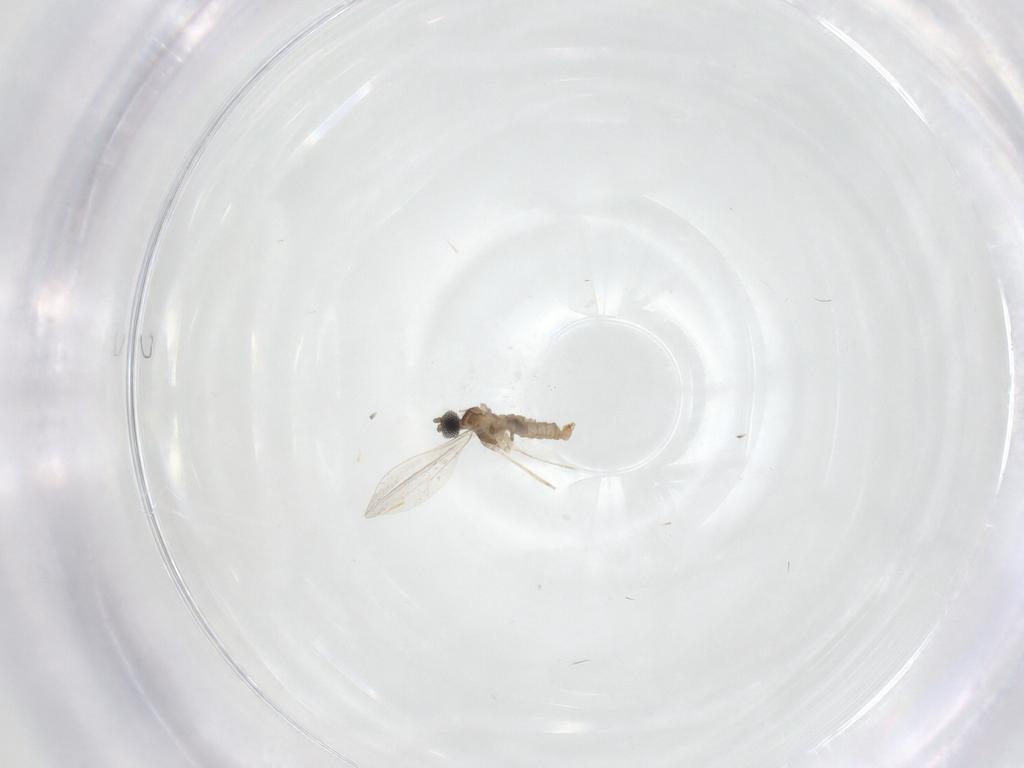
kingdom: Animalia
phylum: Arthropoda
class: Insecta
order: Diptera
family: Cecidomyiidae
